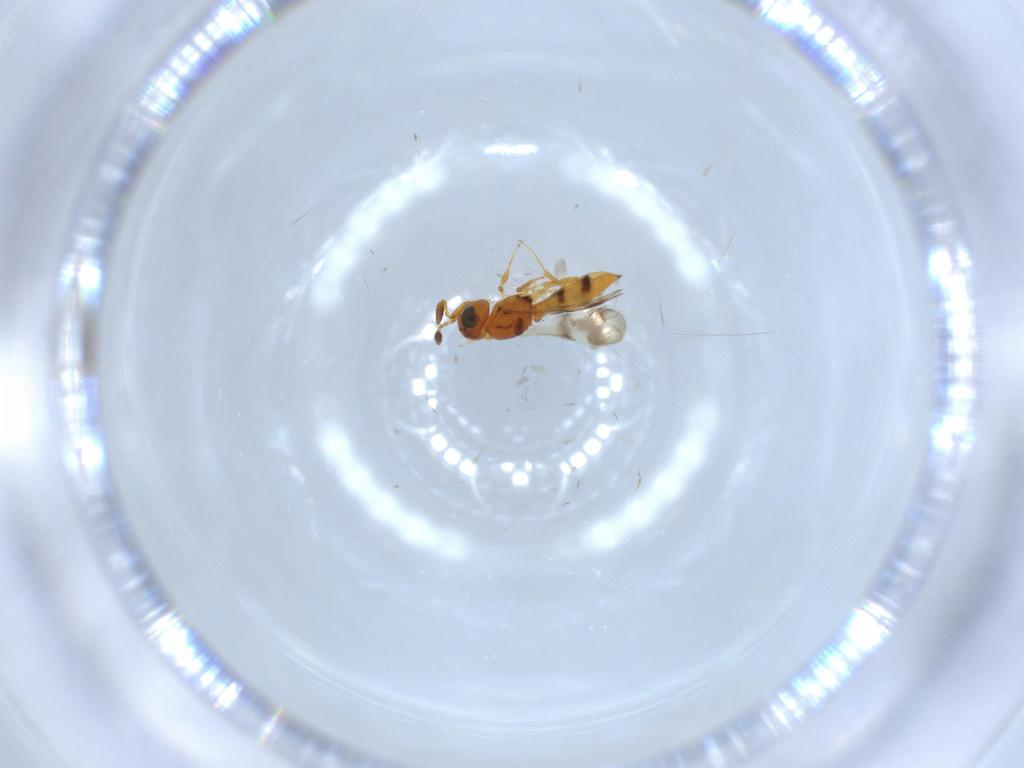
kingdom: Animalia
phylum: Arthropoda
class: Insecta
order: Hymenoptera
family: Scelionidae
